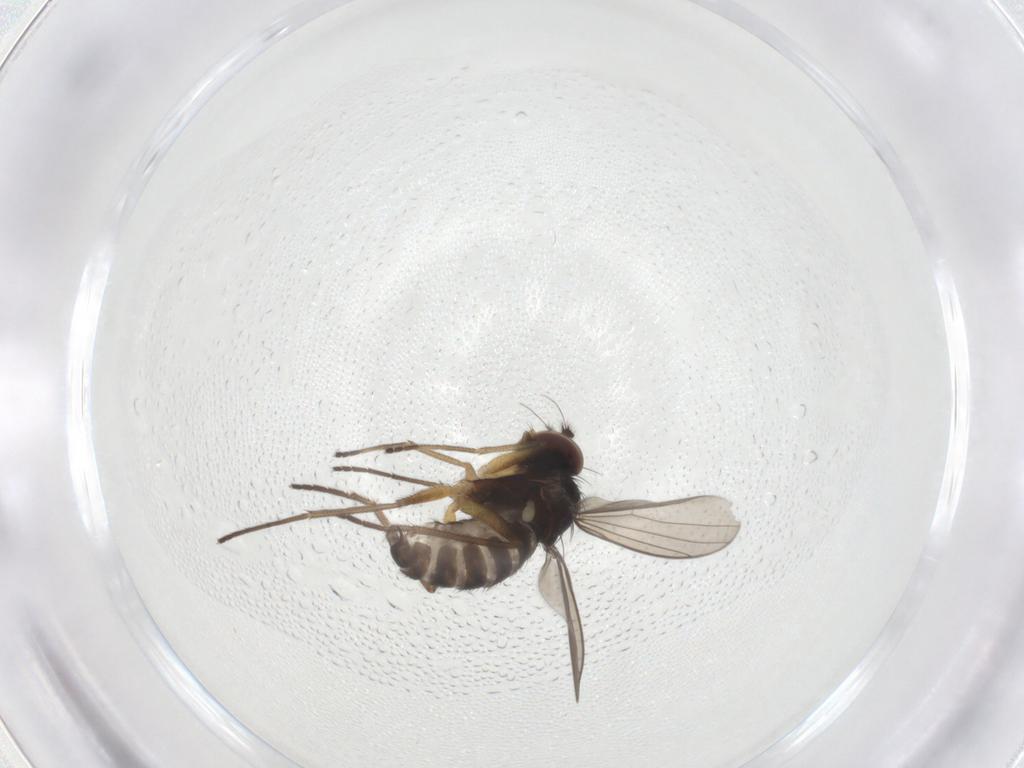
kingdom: Animalia
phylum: Arthropoda
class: Insecta
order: Diptera
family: Dolichopodidae
